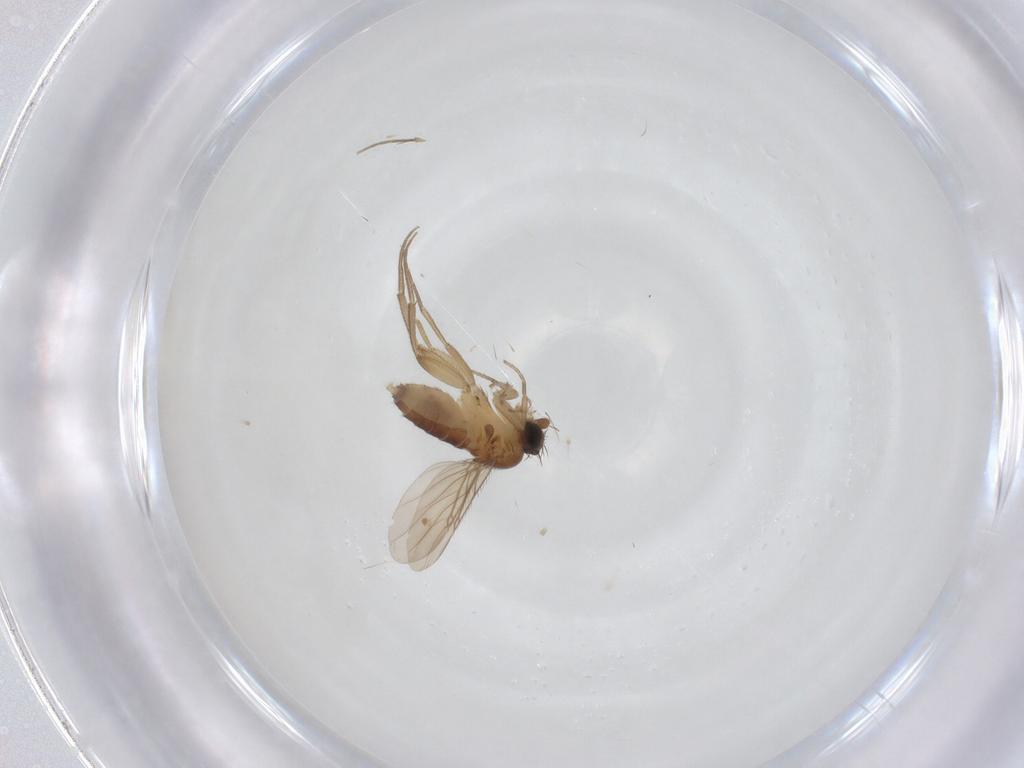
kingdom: Animalia
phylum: Arthropoda
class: Insecta
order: Diptera
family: Phoridae
